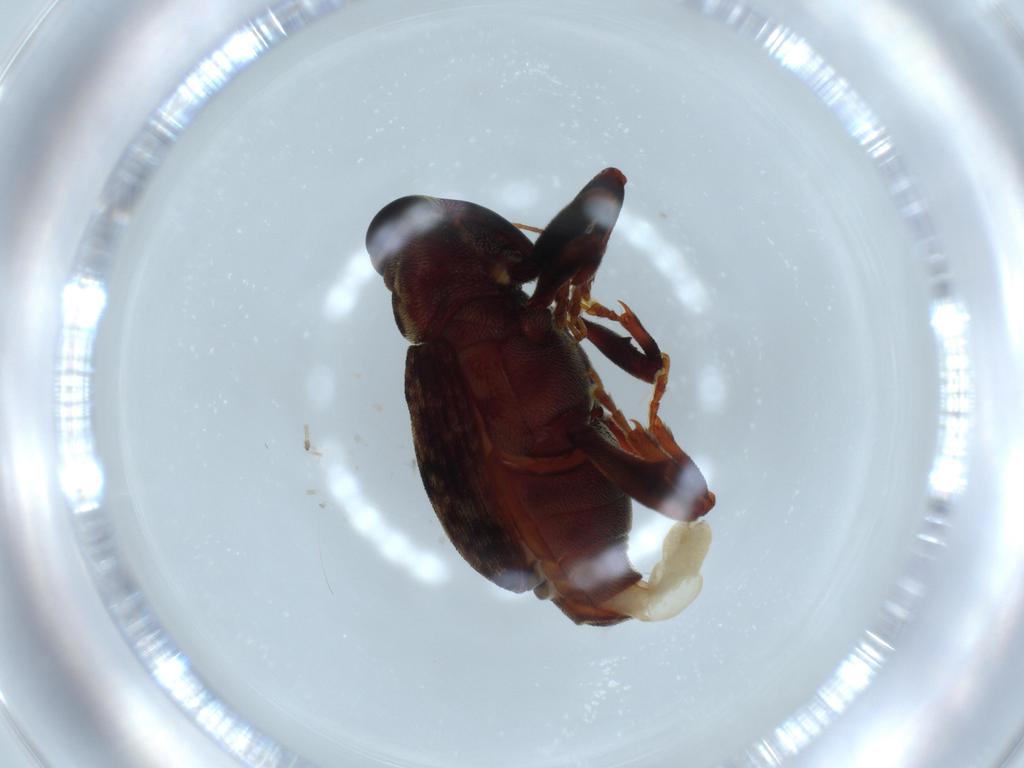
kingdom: Animalia
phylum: Arthropoda
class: Insecta
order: Coleoptera
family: Curculionidae
